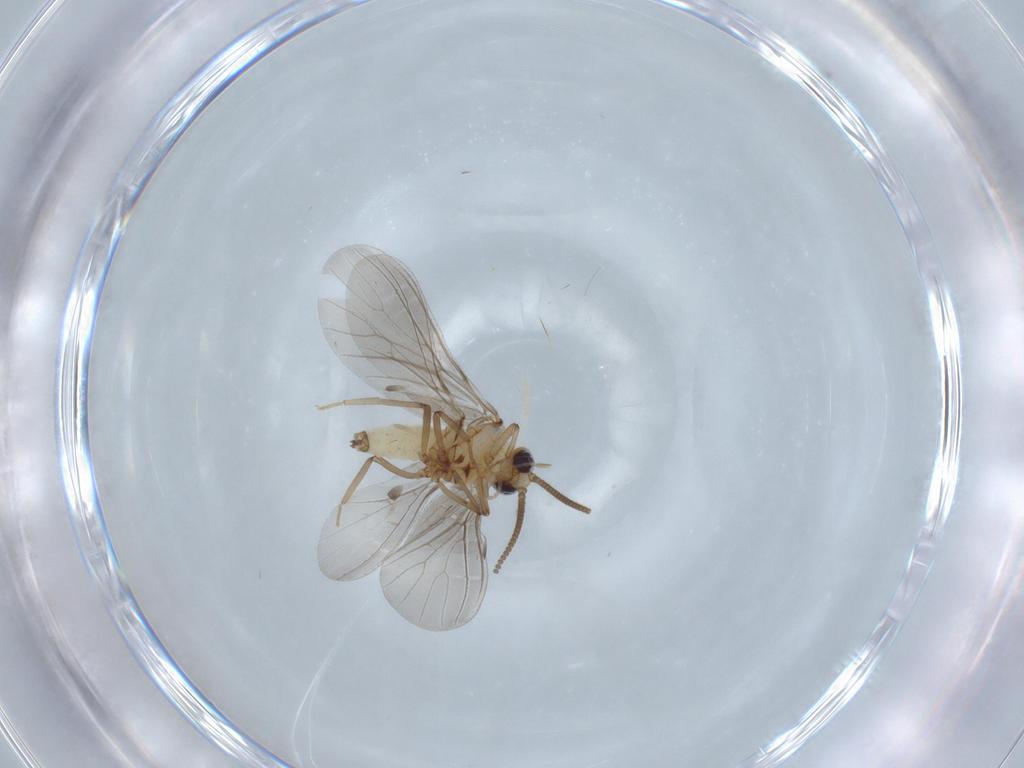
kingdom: Animalia
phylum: Arthropoda
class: Insecta
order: Neuroptera
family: Coniopterygidae
